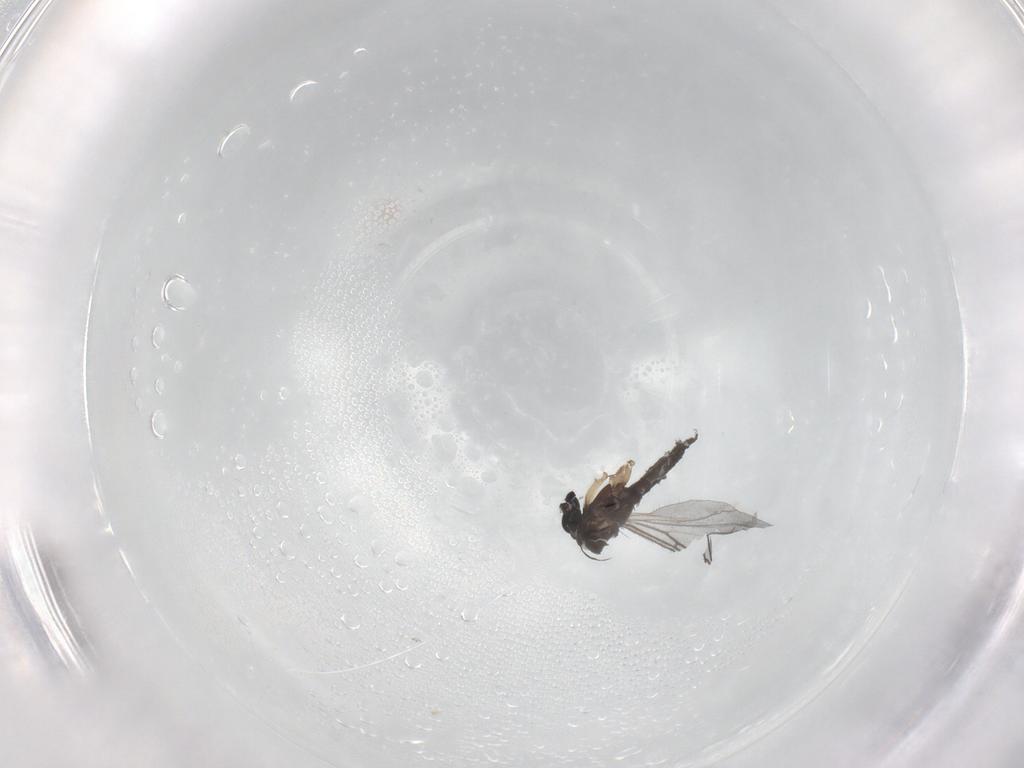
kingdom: Animalia
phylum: Arthropoda
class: Insecta
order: Diptera
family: Sciaridae
